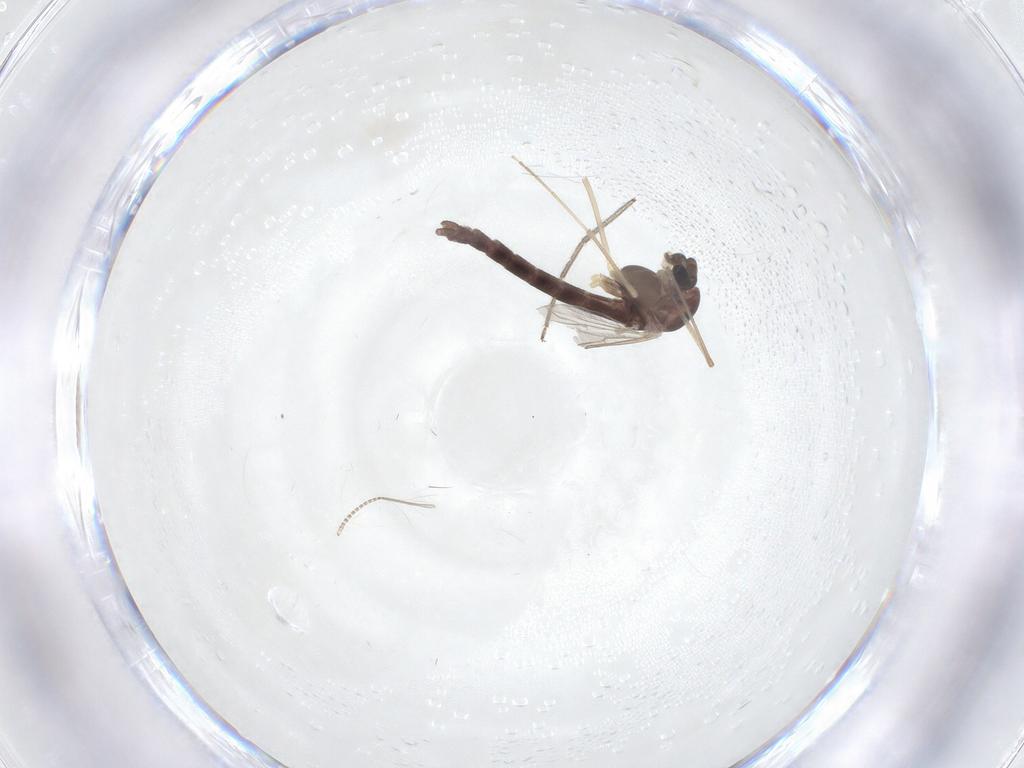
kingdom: Animalia
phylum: Arthropoda
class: Insecta
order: Diptera
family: Chironomidae
